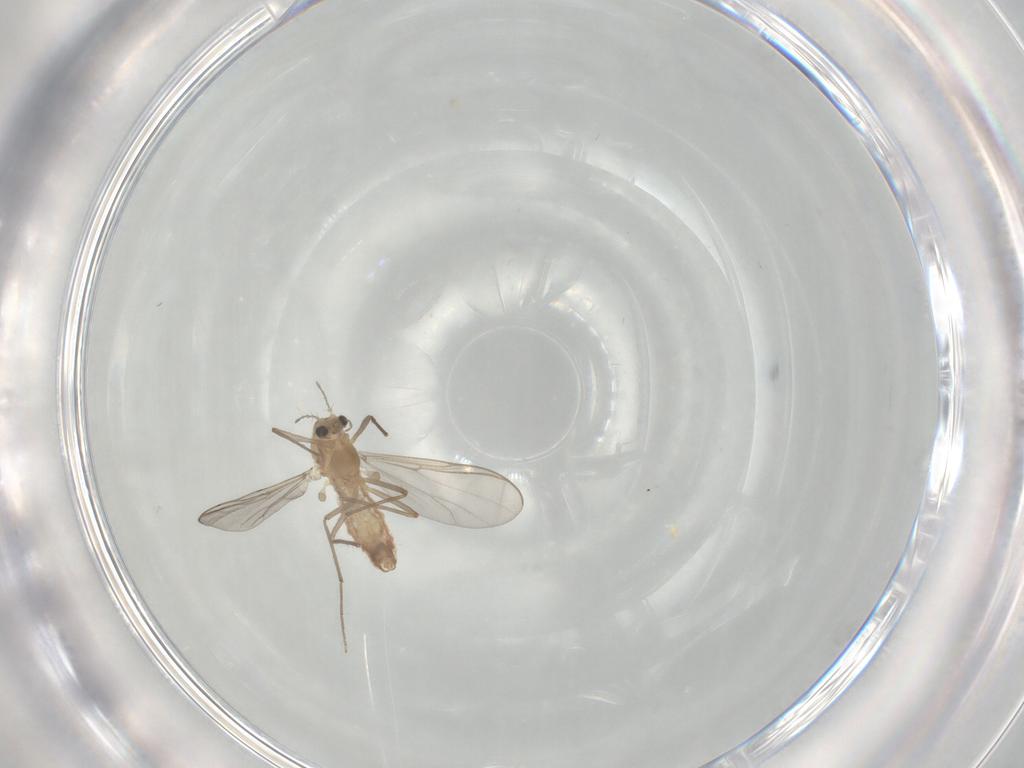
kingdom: Animalia
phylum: Arthropoda
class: Insecta
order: Diptera
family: Chironomidae
